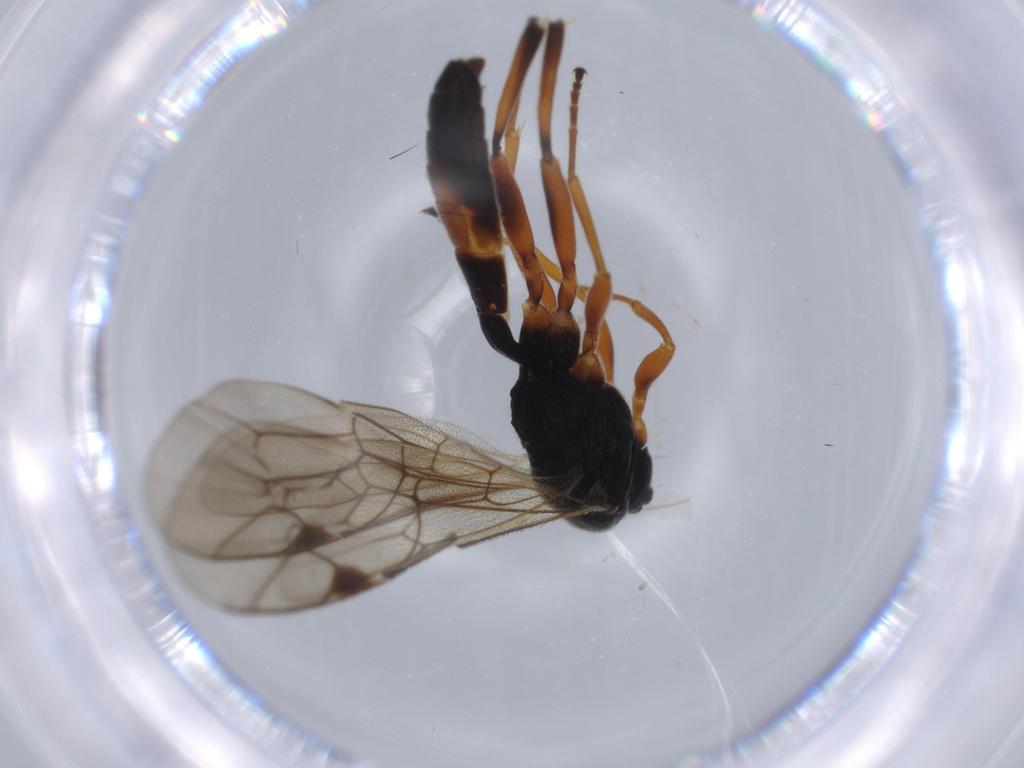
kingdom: Animalia
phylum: Arthropoda
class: Insecta
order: Hymenoptera
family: Ichneumonidae
